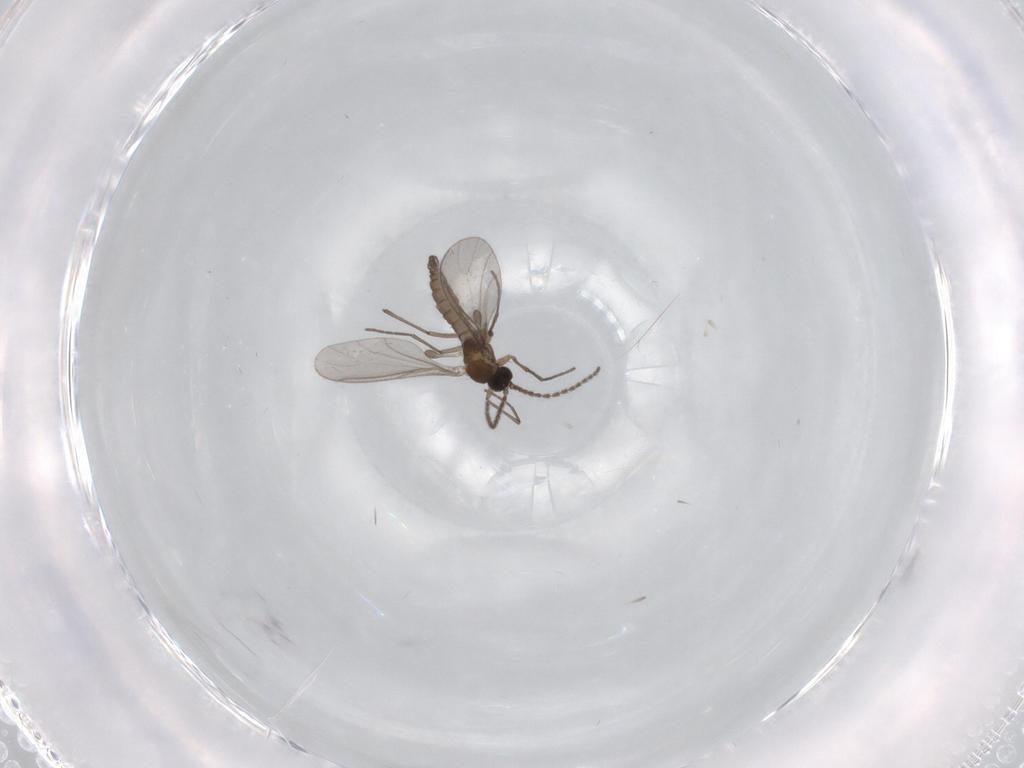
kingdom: Animalia
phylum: Arthropoda
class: Insecta
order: Diptera
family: Sciaridae
